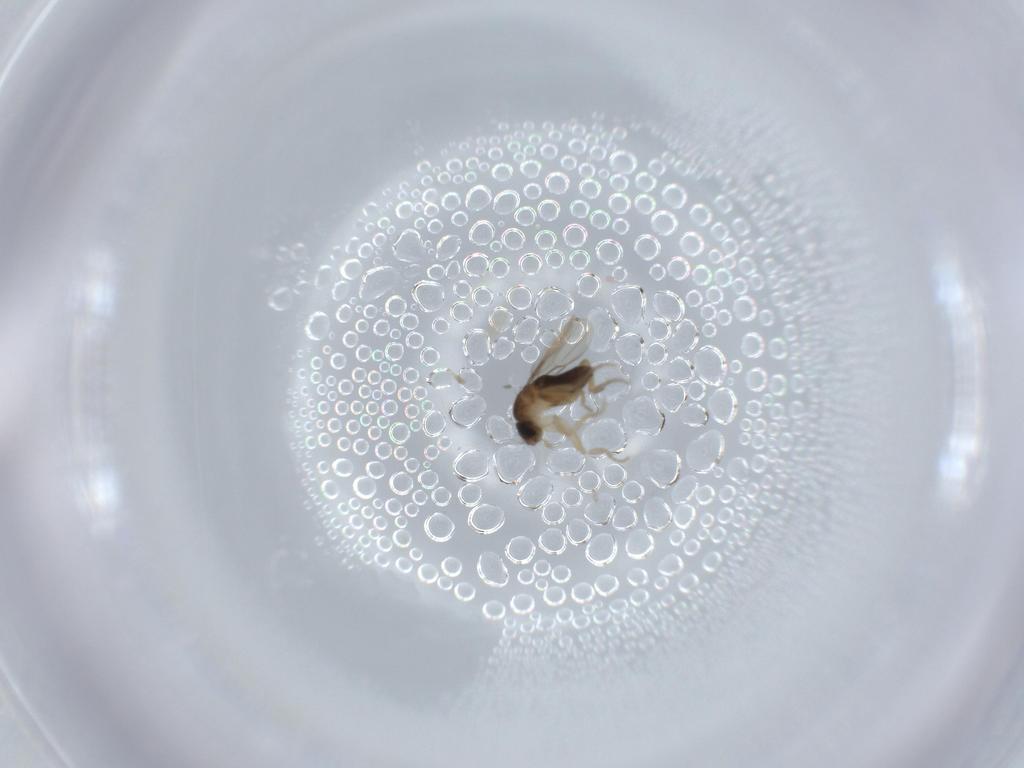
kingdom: Animalia
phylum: Arthropoda
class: Insecta
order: Diptera
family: Phoridae
